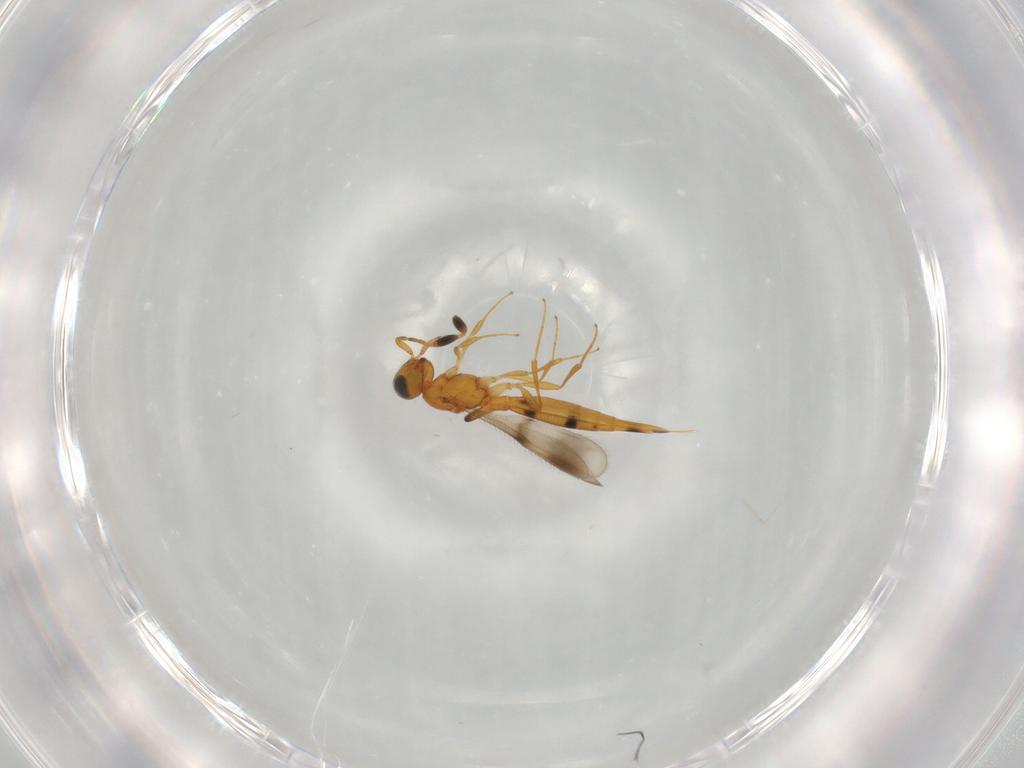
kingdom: Animalia
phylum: Arthropoda
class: Insecta
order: Hymenoptera
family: Scelionidae
